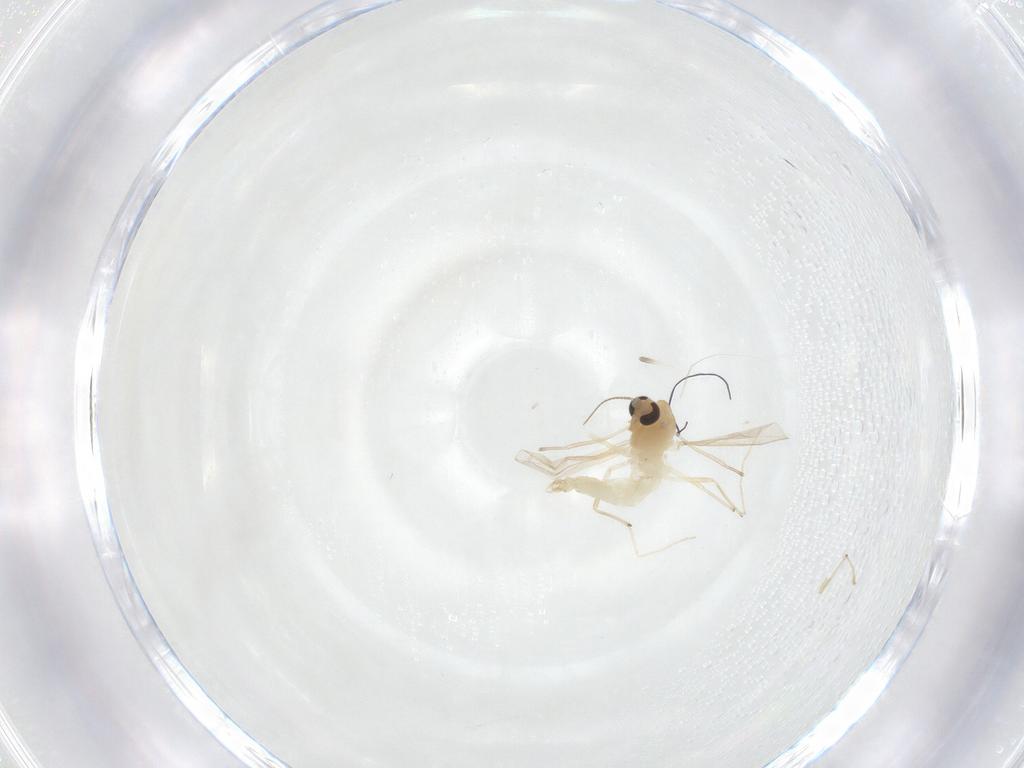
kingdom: Animalia
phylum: Arthropoda
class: Insecta
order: Diptera
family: Chironomidae
